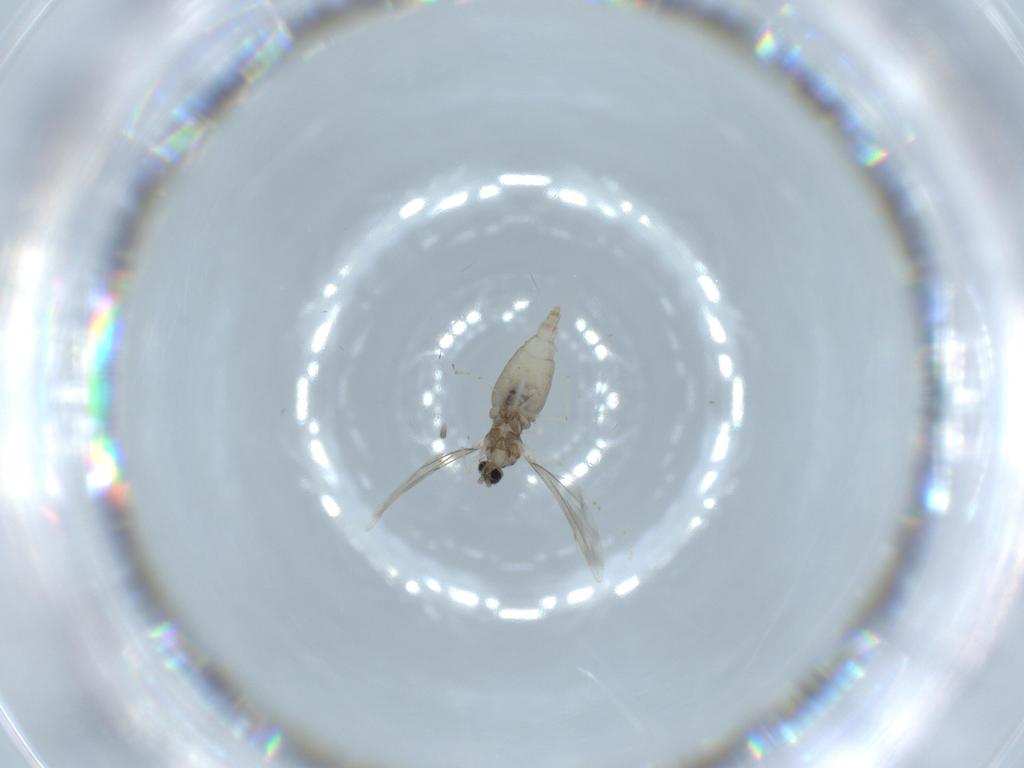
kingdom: Animalia
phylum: Arthropoda
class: Insecta
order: Diptera
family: Cecidomyiidae
